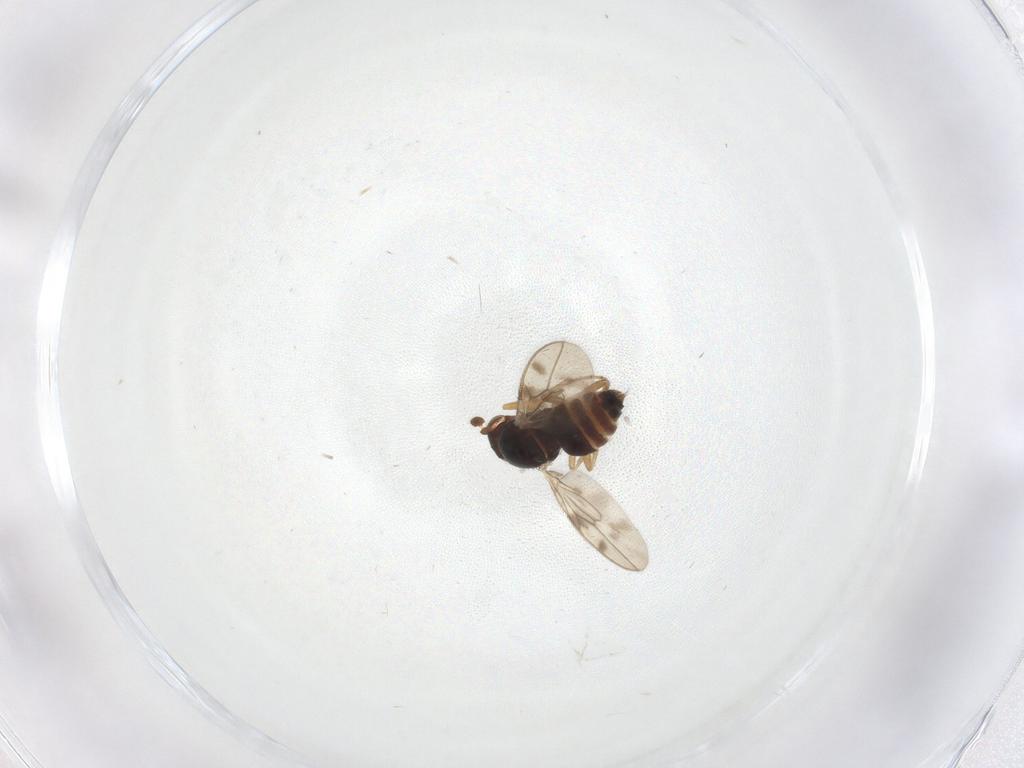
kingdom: Animalia
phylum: Arthropoda
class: Insecta
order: Diptera
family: Sphaeroceridae
